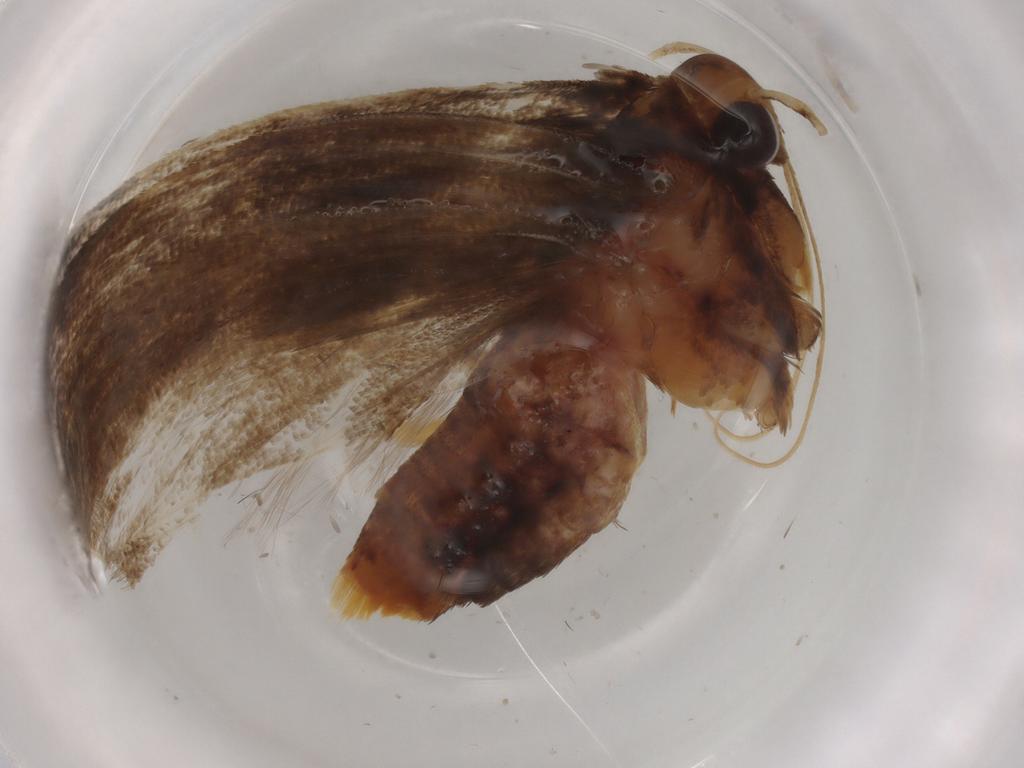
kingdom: Animalia
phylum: Arthropoda
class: Insecta
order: Lepidoptera
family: Lecithoceridae
